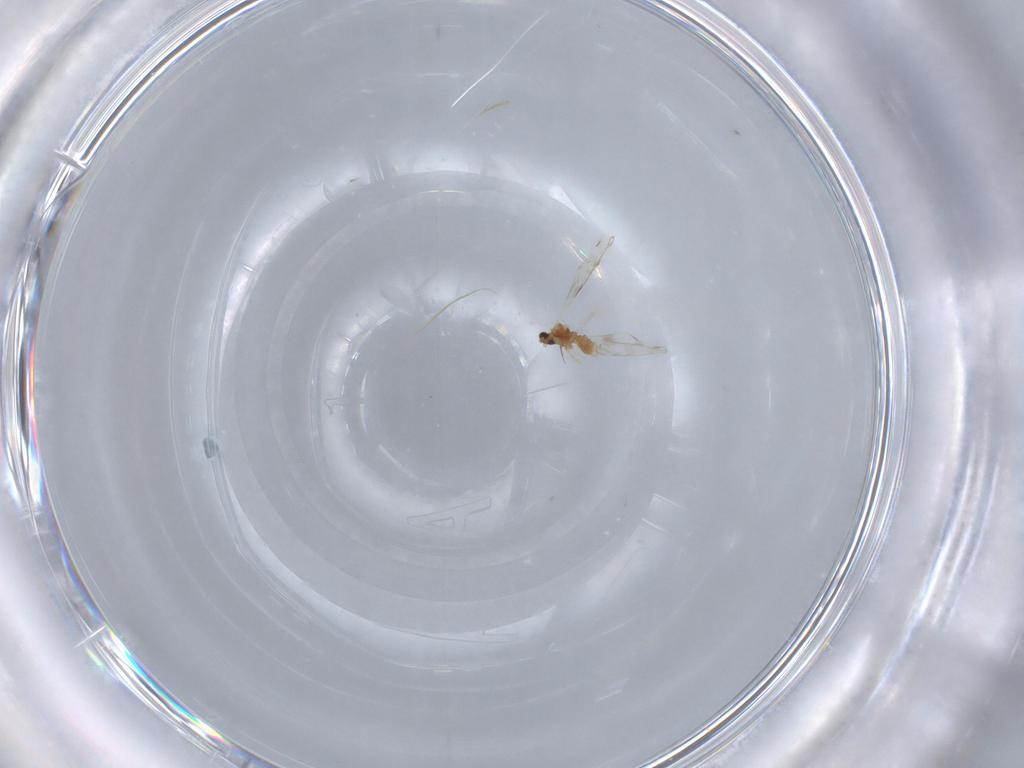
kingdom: Animalia
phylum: Arthropoda
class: Insecta
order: Diptera
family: Cecidomyiidae
